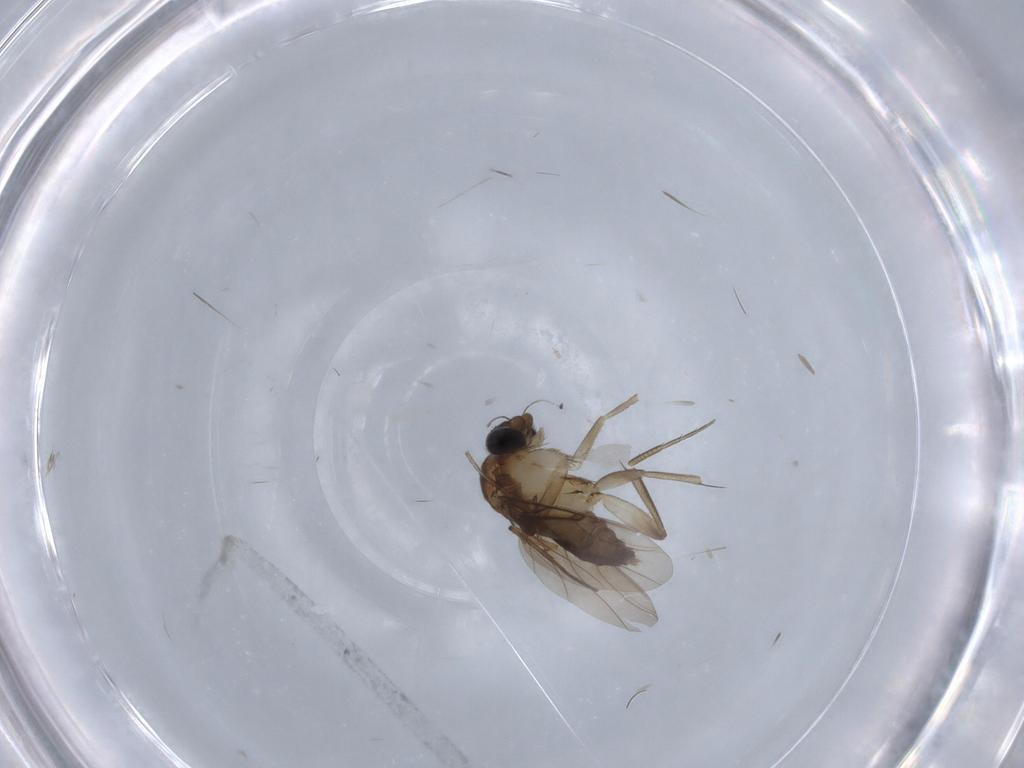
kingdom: Animalia
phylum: Arthropoda
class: Insecta
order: Diptera
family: Phoridae
